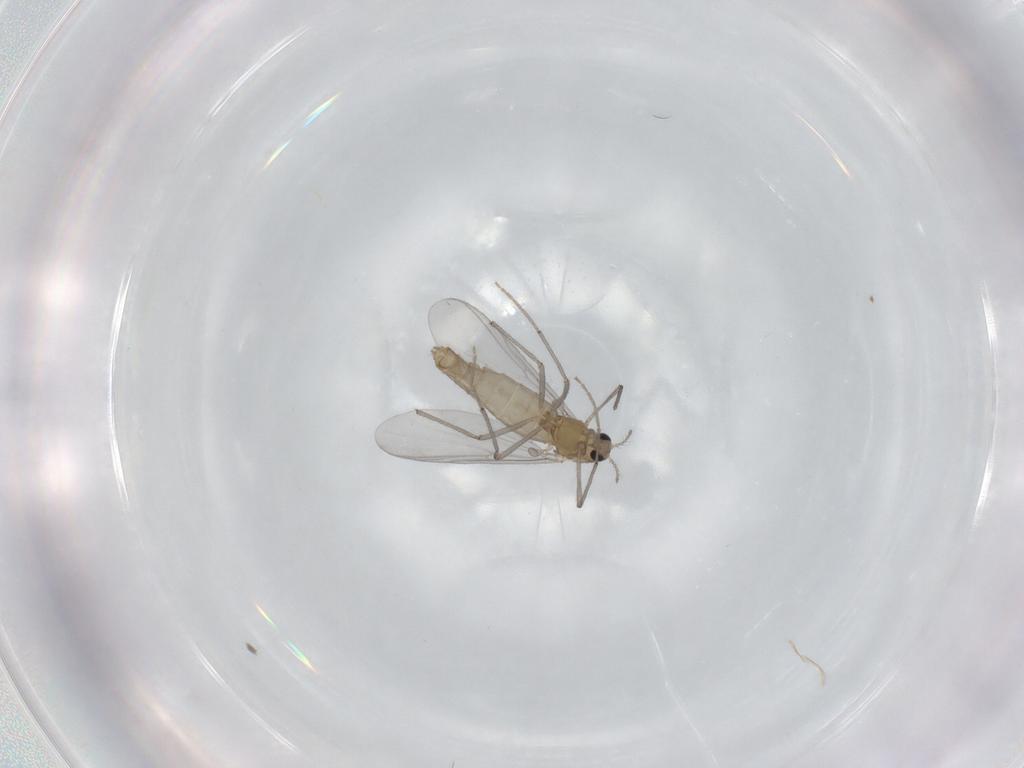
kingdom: Animalia
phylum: Arthropoda
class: Insecta
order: Diptera
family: Chironomidae
